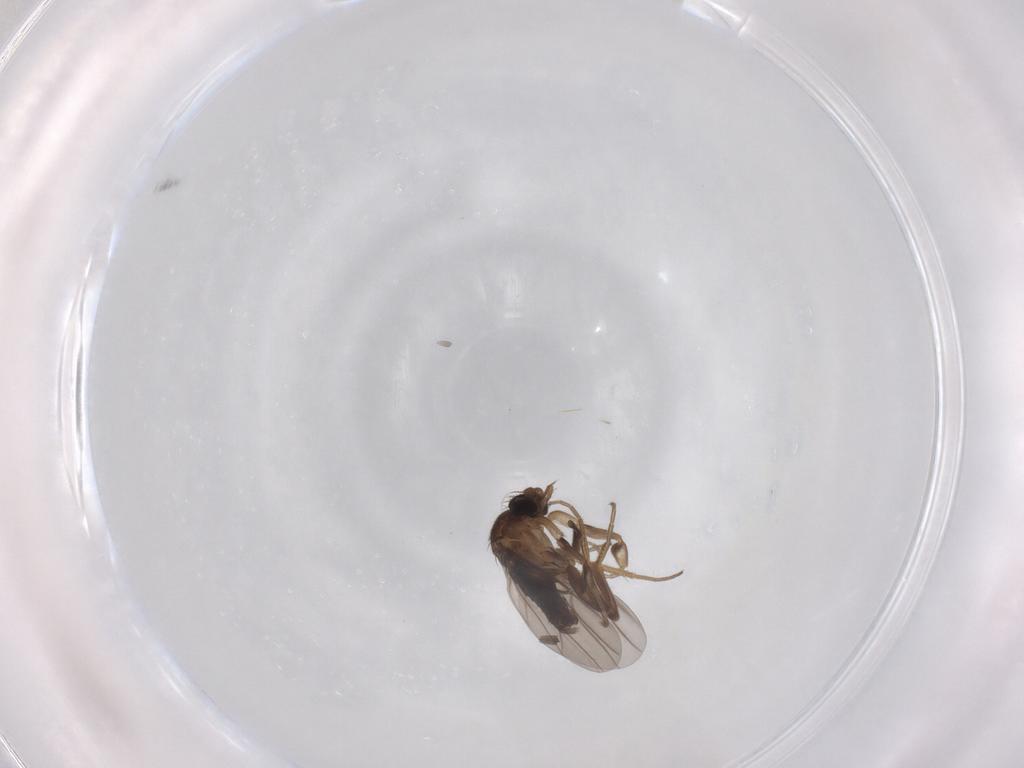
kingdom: Animalia
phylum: Arthropoda
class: Insecta
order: Diptera
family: Phoridae
